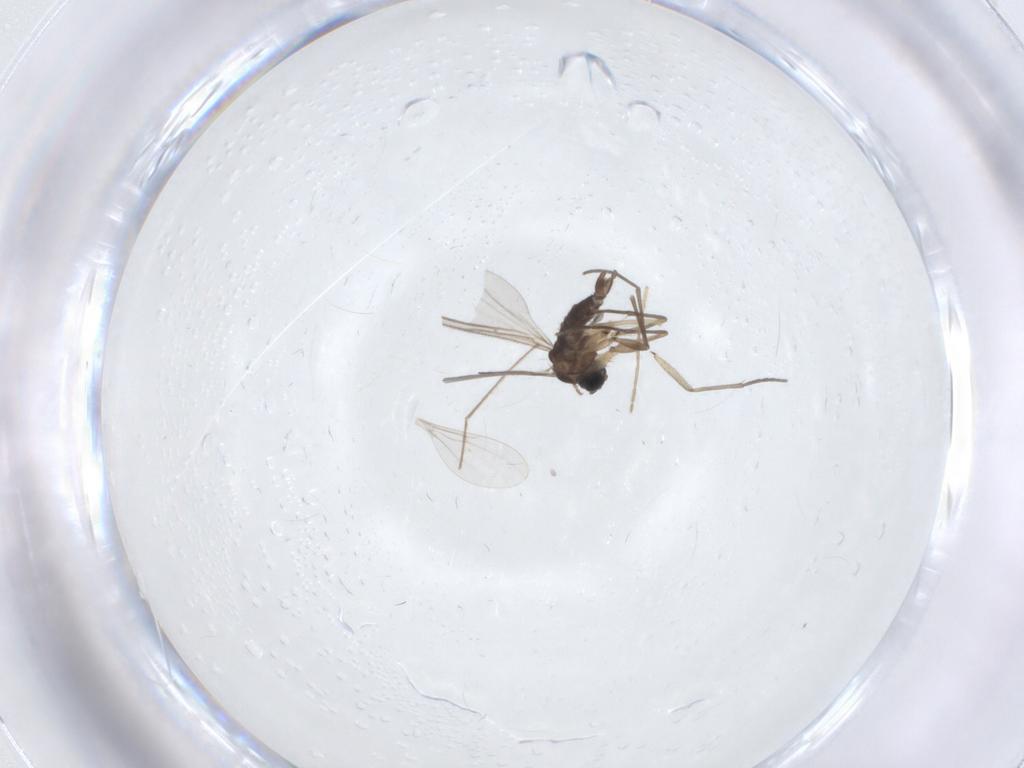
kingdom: Animalia
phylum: Arthropoda
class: Insecta
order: Diptera
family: Sciaridae
